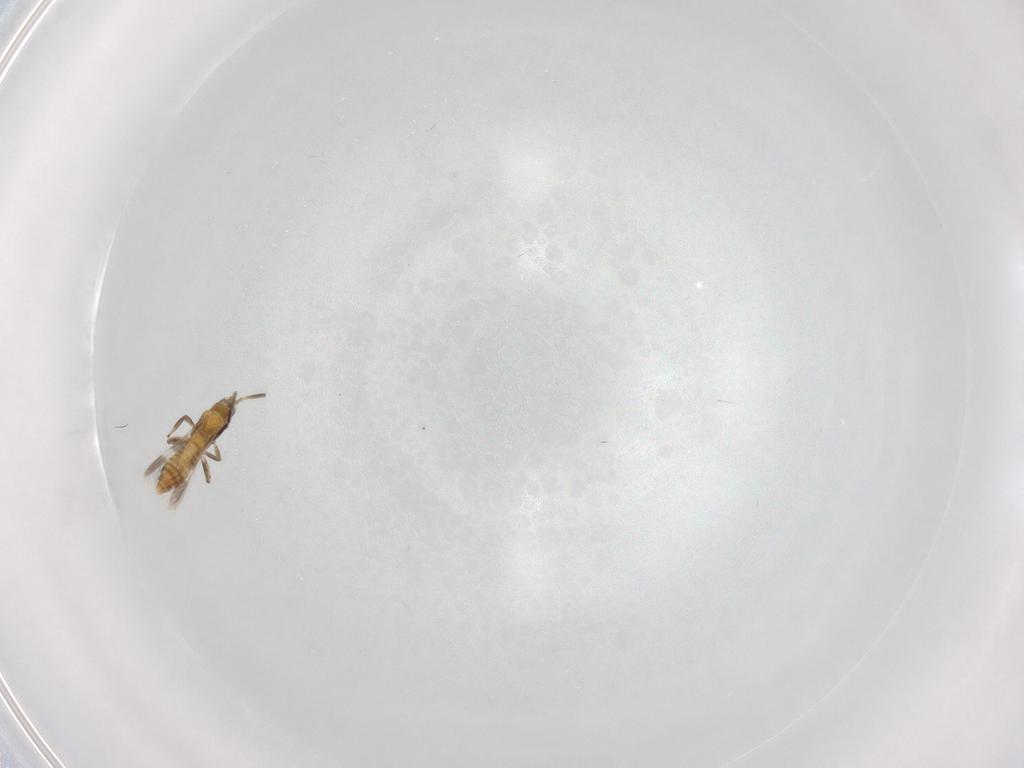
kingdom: Animalia
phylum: Arthropoda
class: Insecta
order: Thysanoptera
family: Aeolothripidae
